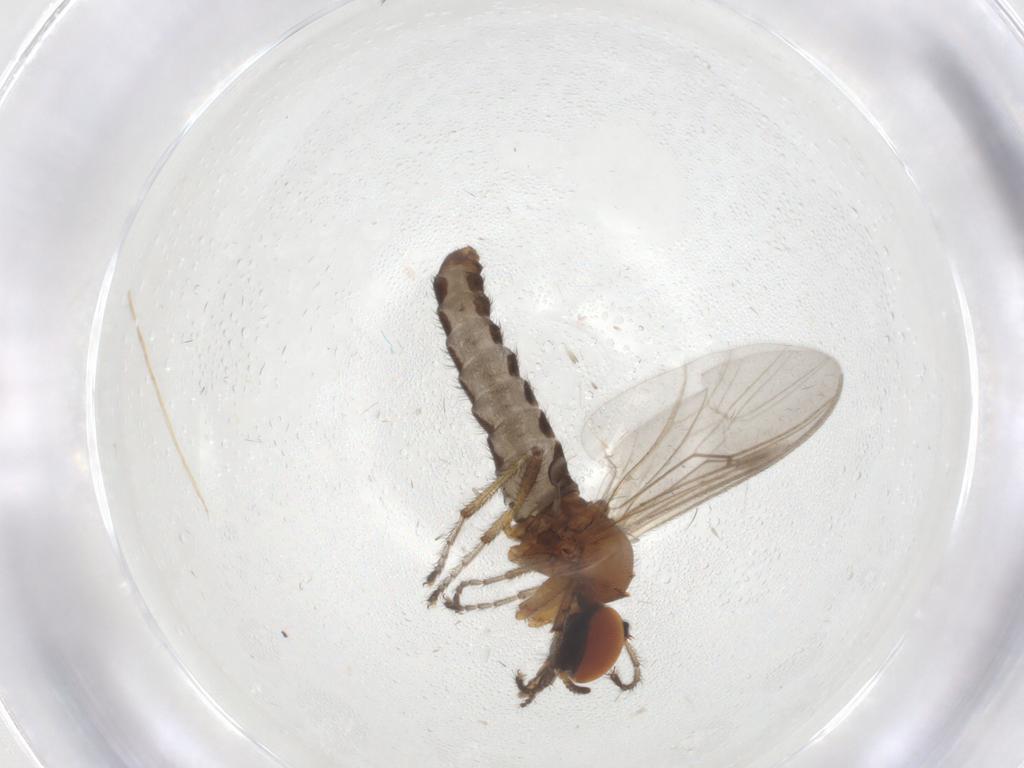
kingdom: Animalia
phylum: Arthropoda
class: Insecta
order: Diptera
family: Bibionidae
